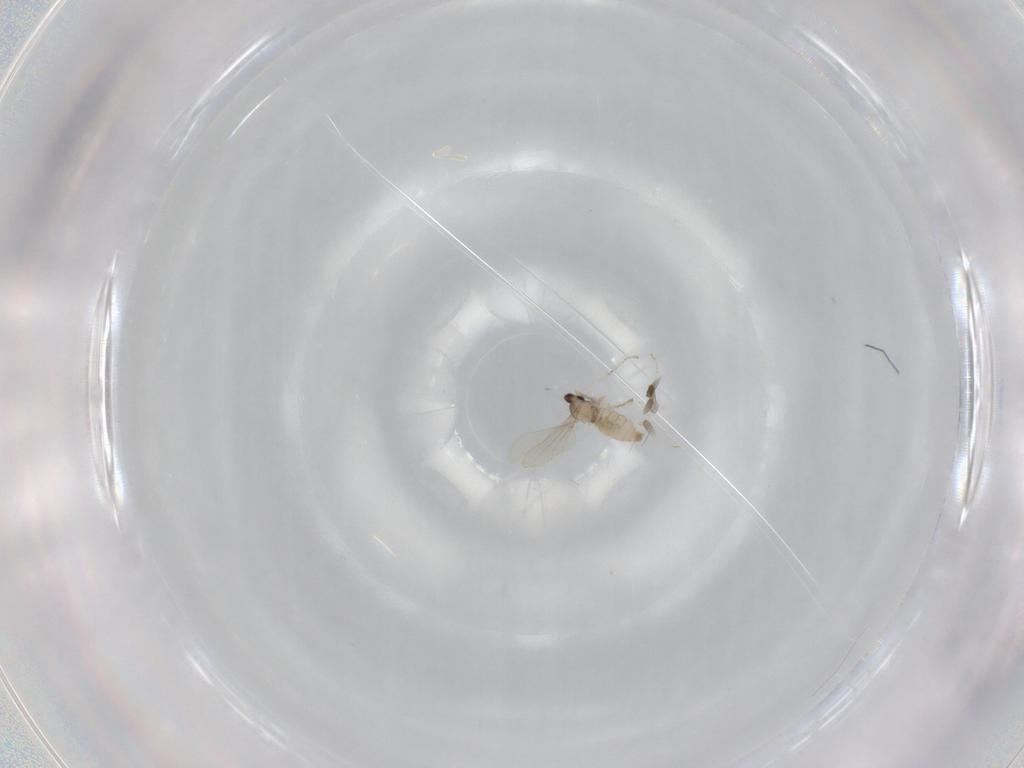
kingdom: Animalia
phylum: Arthropoda
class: Insecta
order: Diptera
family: Cecidomyiidae
